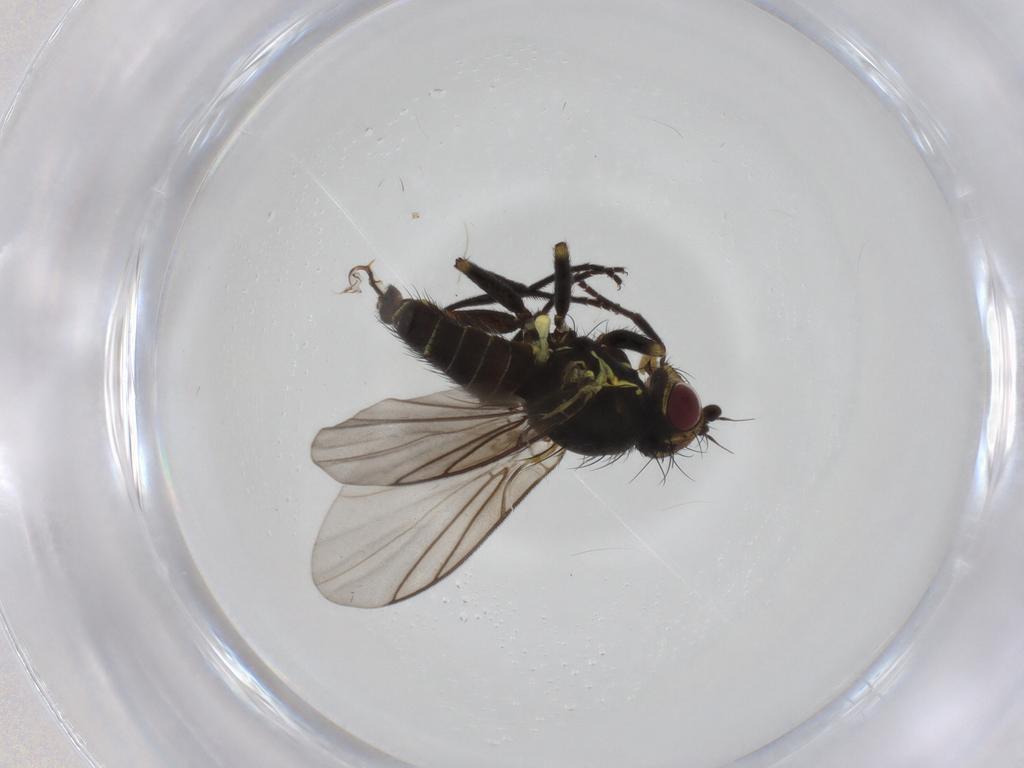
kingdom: Animalia
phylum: Arthropoda
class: Insecta
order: Diptera
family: Agromyzidae
